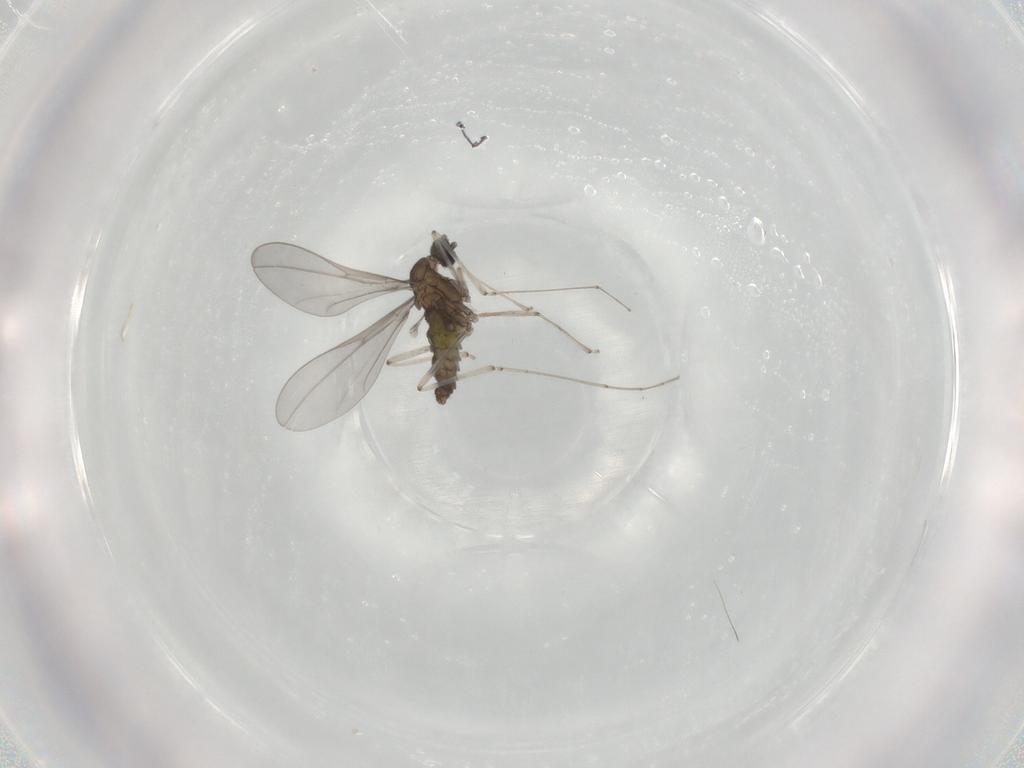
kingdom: Animalia
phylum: Arthropoda
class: Insecta
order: Diptera
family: Cecidomyiidae
